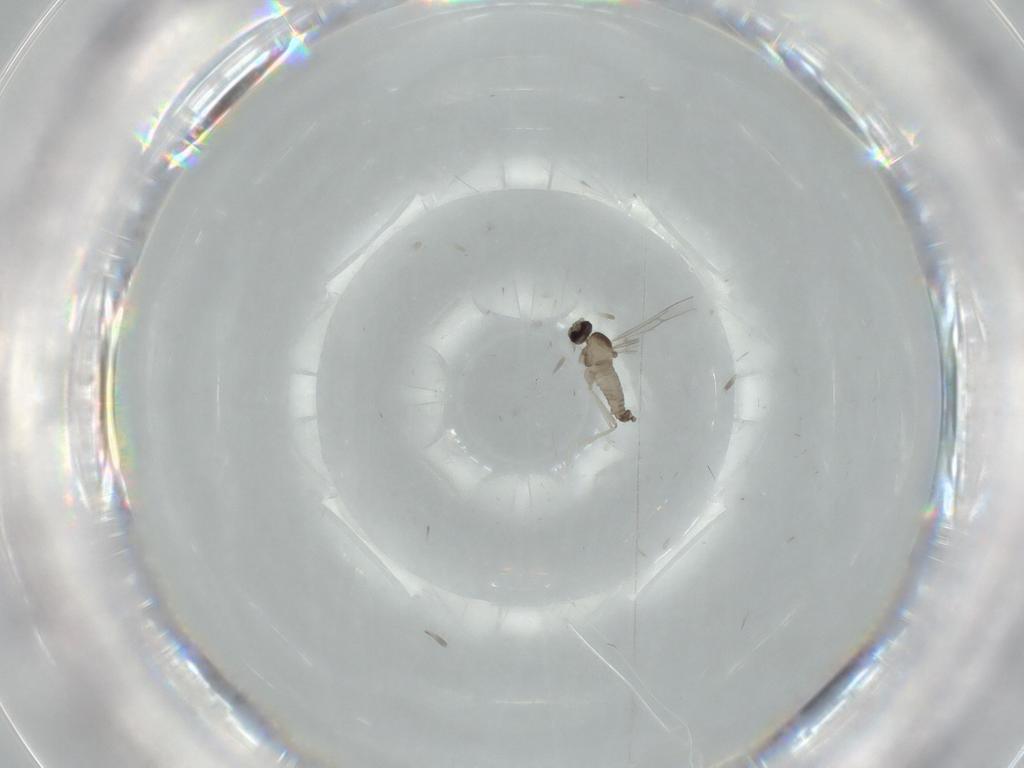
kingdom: Animalia
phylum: Arthropoda
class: Insecta
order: Diptera
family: Cecidomyiidae
